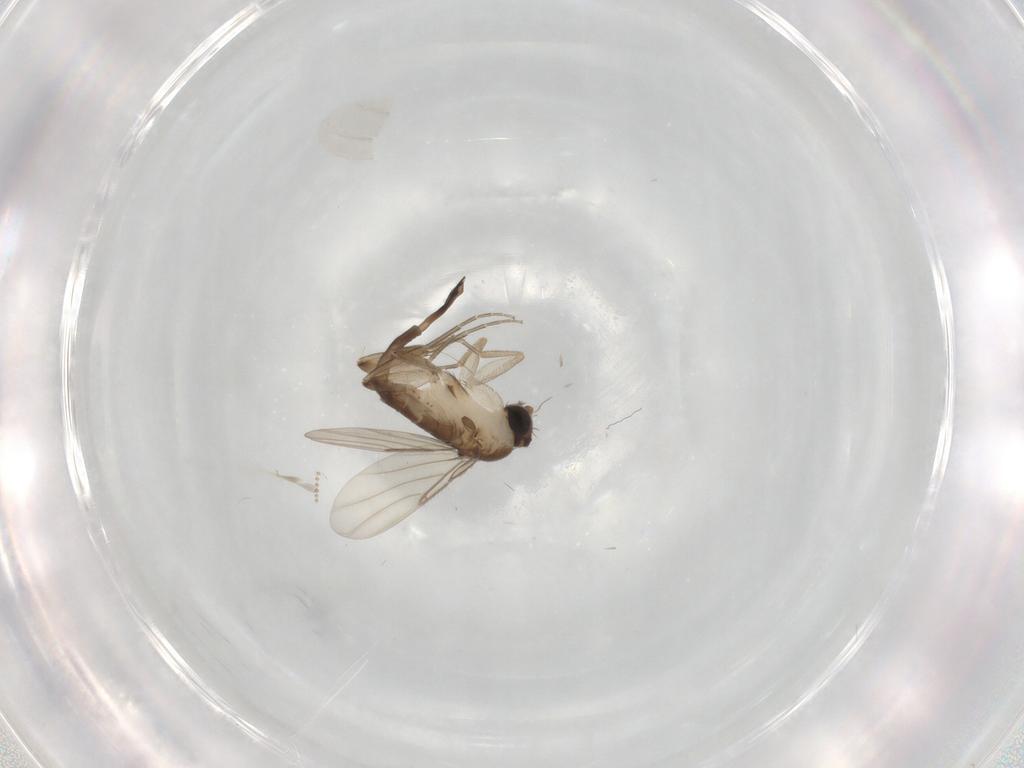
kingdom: Animalia
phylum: Arthropoda
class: Insecta
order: Diptera
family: Phoridae
